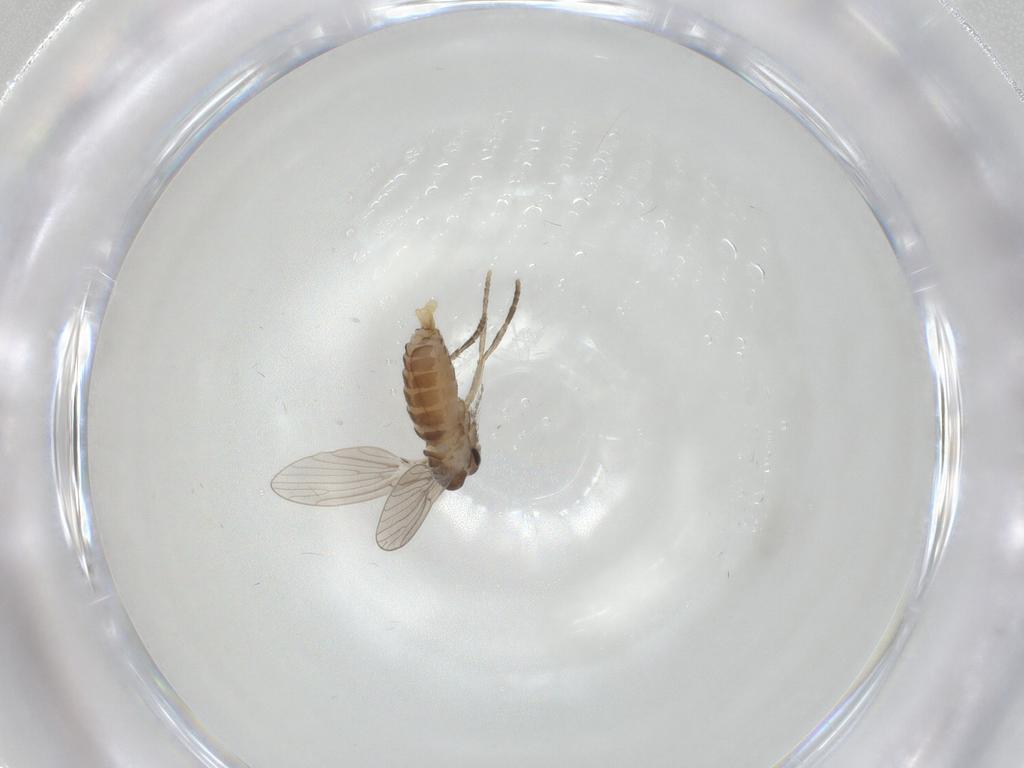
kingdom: Animalia
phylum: Arthropoda
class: Insecta
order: Diptera
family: Psychodidae
